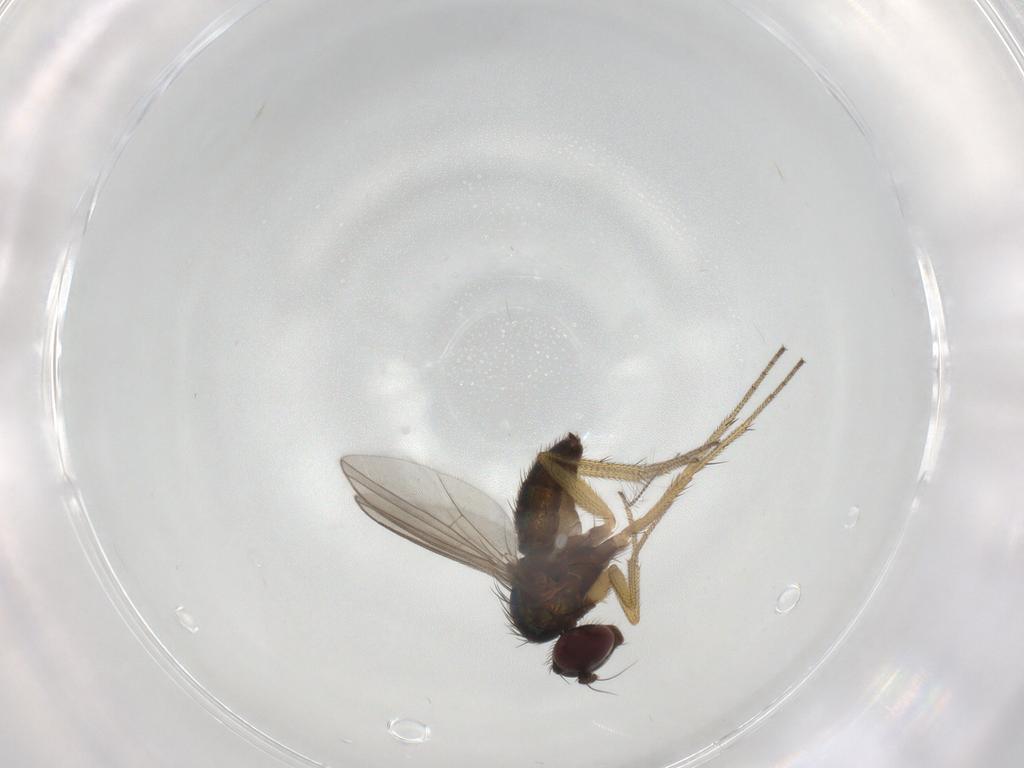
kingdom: Animalia
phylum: Arthropoda
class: Insecta
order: Diptera
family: Dolichopodidae
